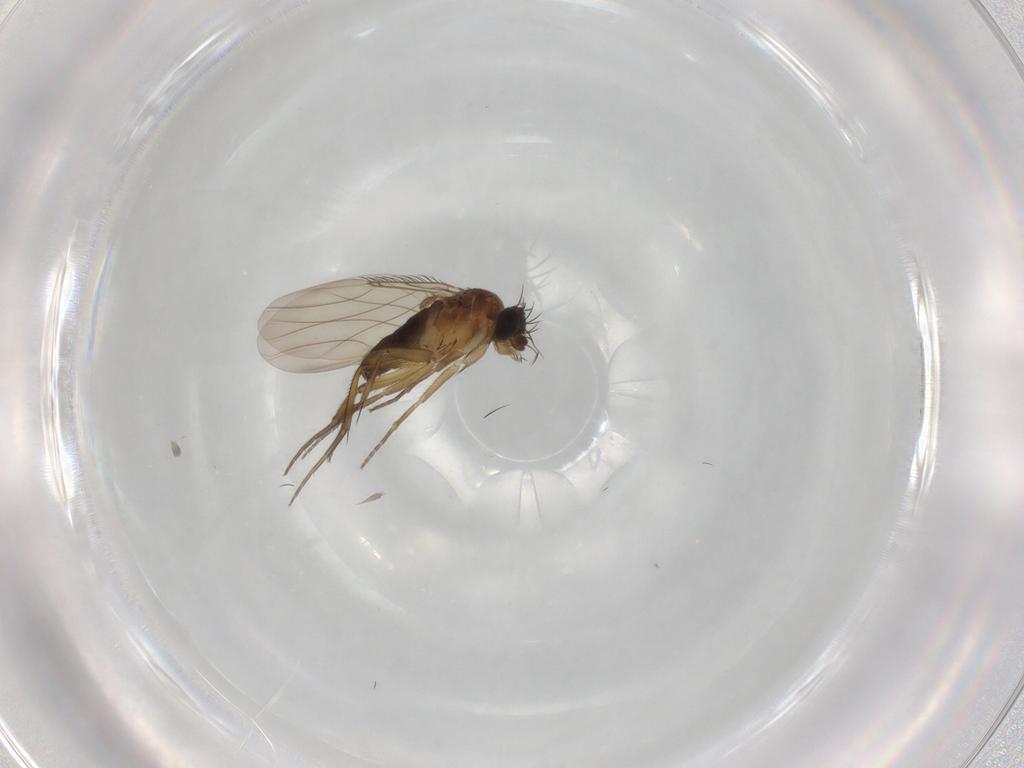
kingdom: Animalia
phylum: Arthropoda
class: Insecta
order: Diptera
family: Phoridae
